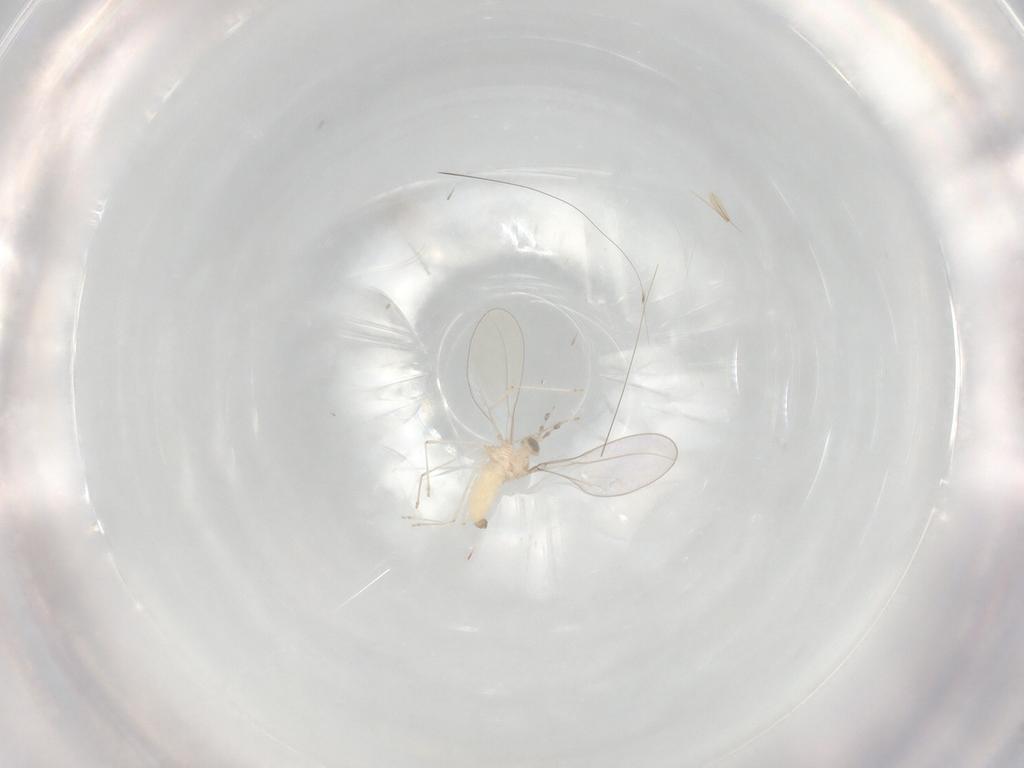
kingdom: Animalia
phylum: Arthropoda
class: Insecta
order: Diptera
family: Cecidomyiidae
